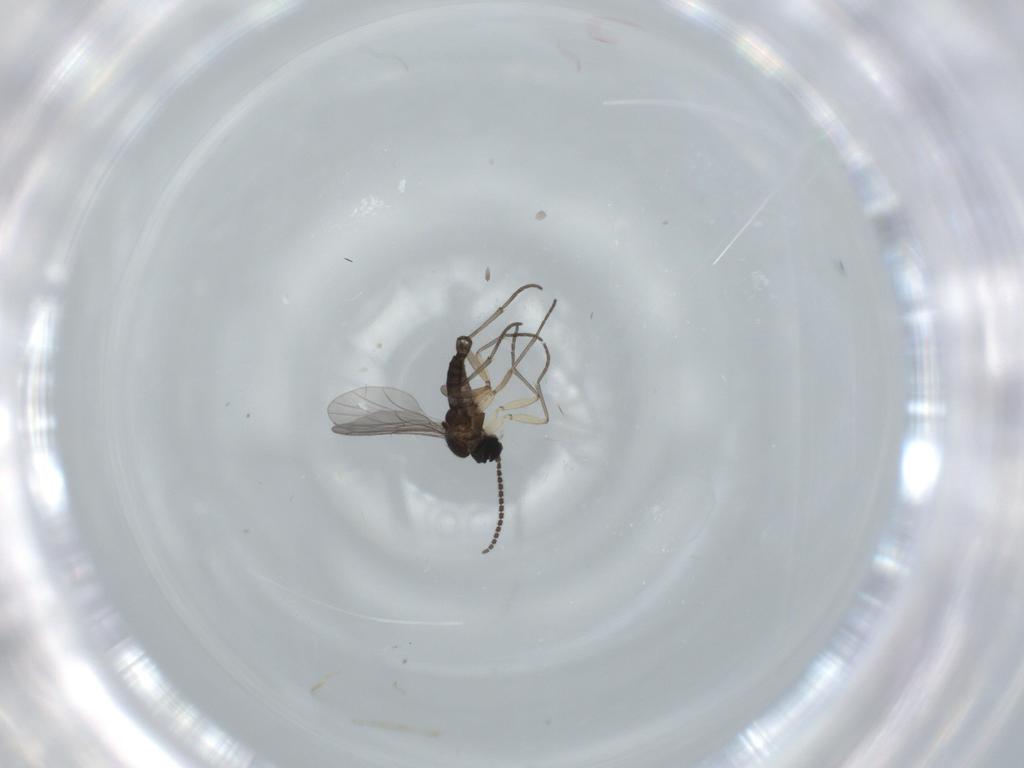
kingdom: Animalia
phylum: Arthropoda
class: Insecta
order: Diptera
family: Sciaridae
